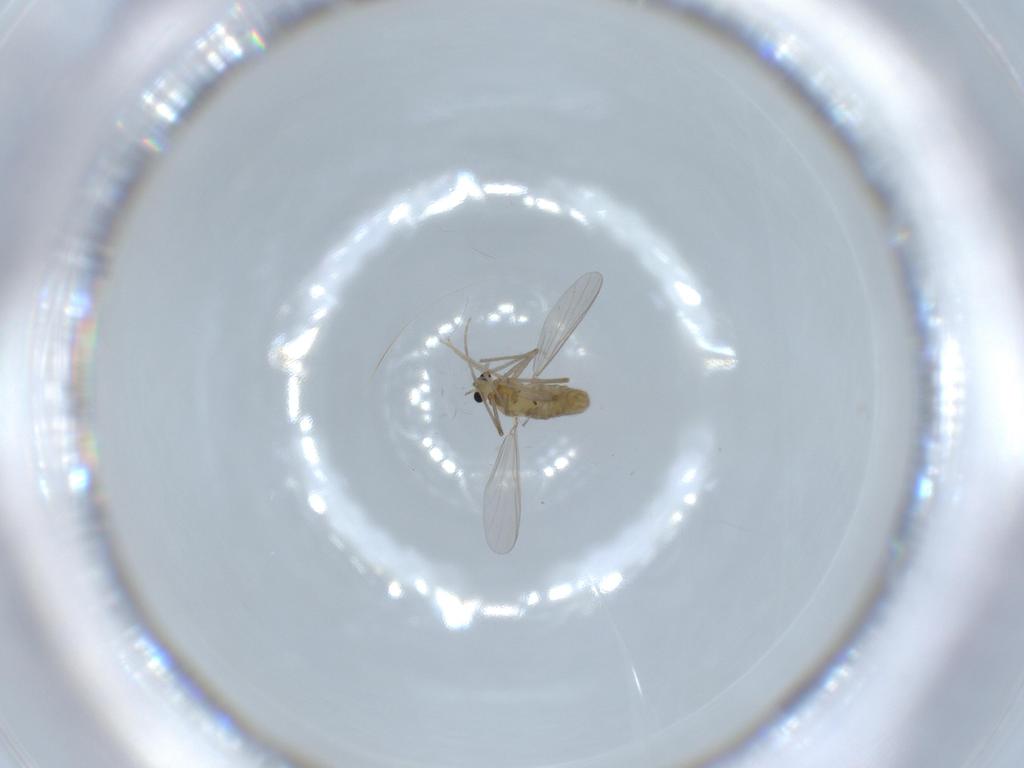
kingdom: Animalia
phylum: Arthropoda
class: Insecta
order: Diptera
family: Chironomidae
